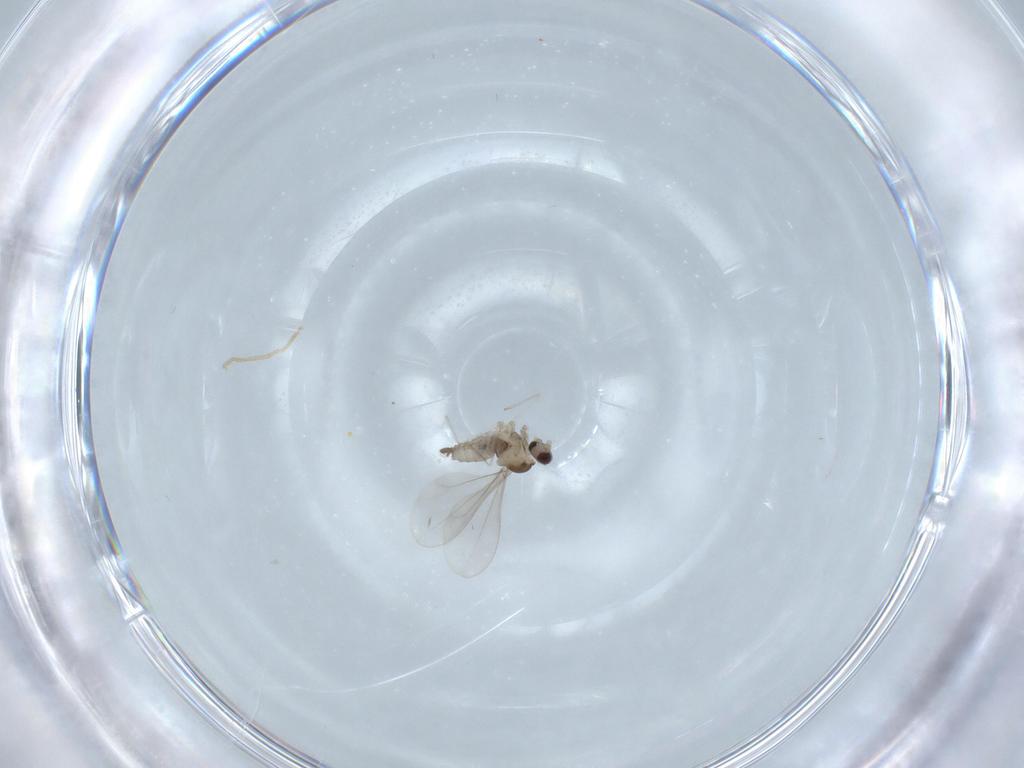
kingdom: Animalia
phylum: Arthropoda
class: Insecta
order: Diptera
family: Cecidomyiidae
